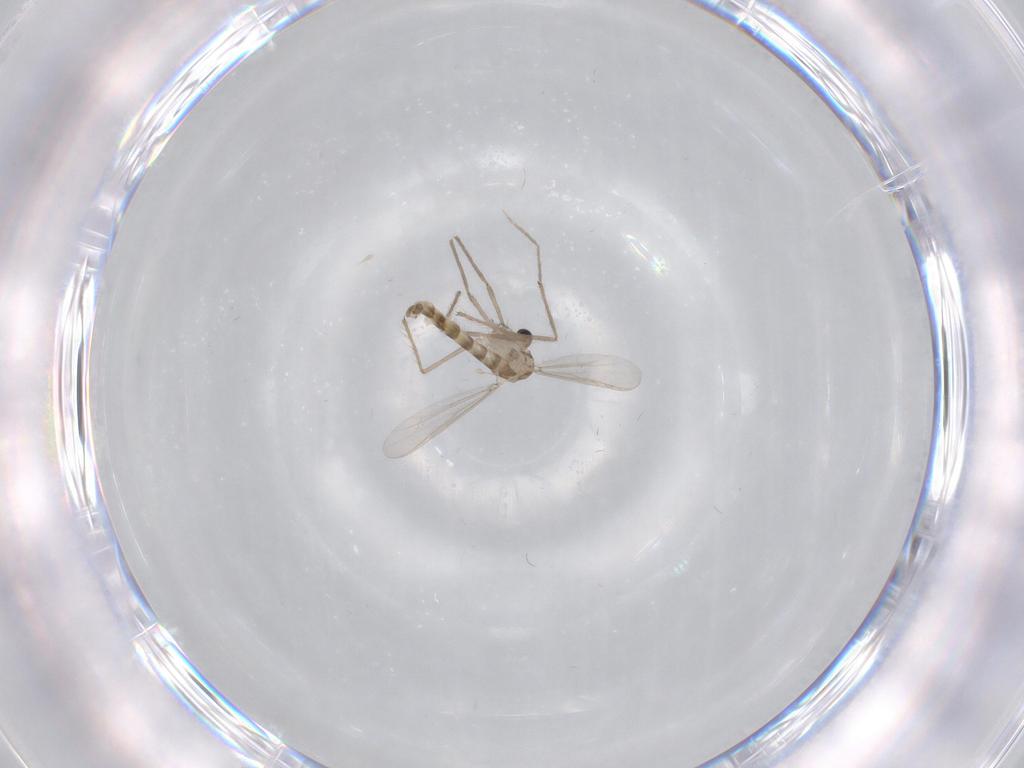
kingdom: Animalia
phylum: Arthropoda
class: Insecta
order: Diptera
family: Chironomidae
